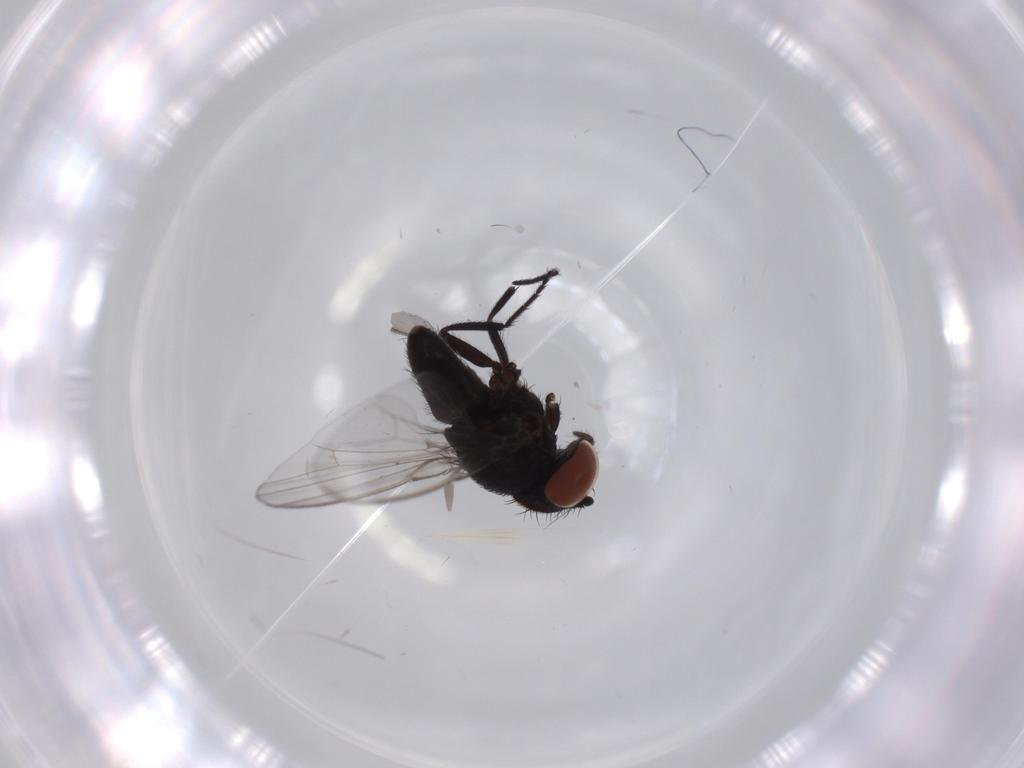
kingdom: Animalia
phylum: Arthropoda
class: Insecta
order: Diptera
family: Milichiidae
